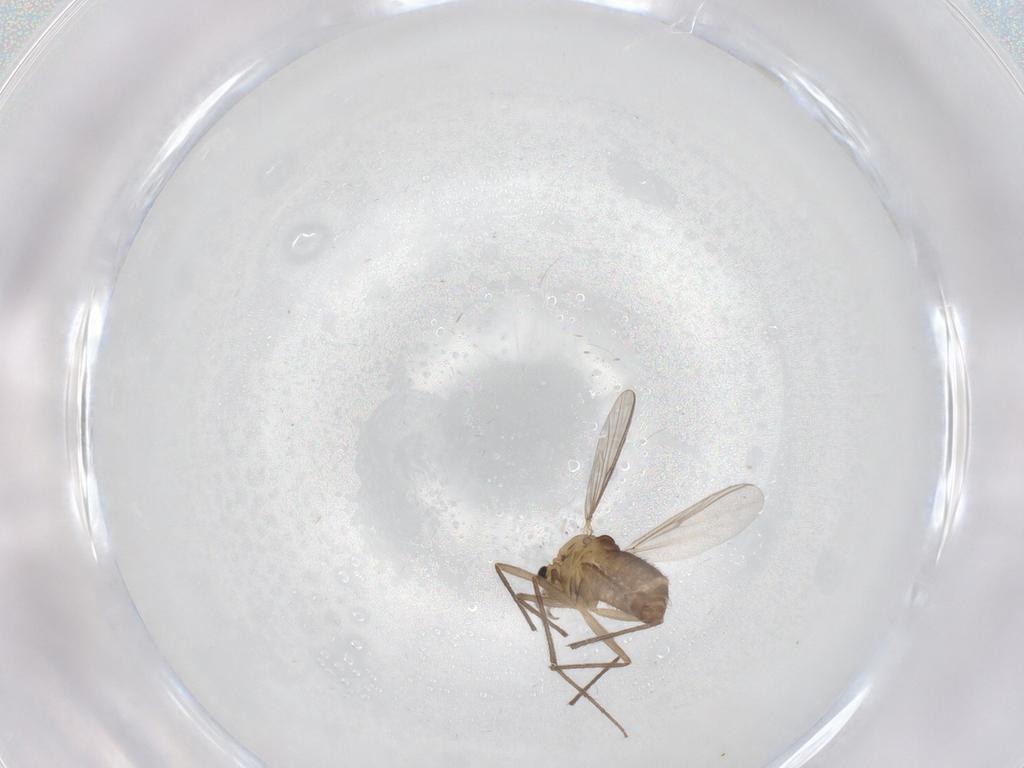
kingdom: Animalia
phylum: Arthropoda
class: Insecta
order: Diptera
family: Chironomidae
